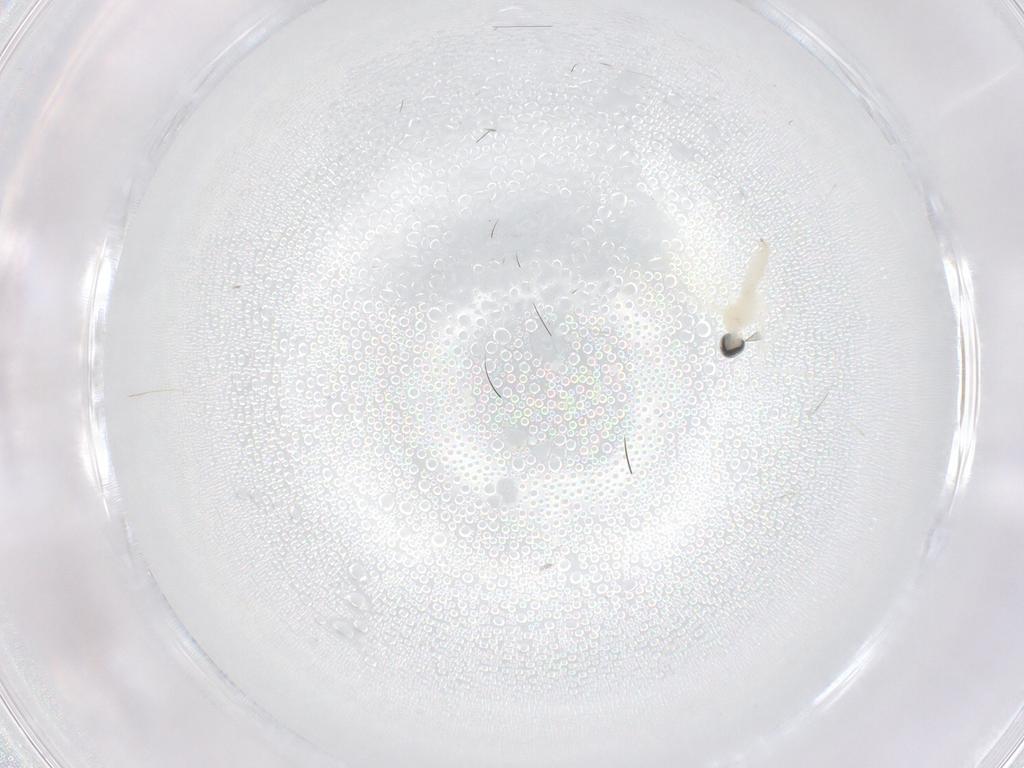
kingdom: Animalia
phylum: Arthropoda
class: Insecta
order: Diptera
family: Cecidomyiidae
